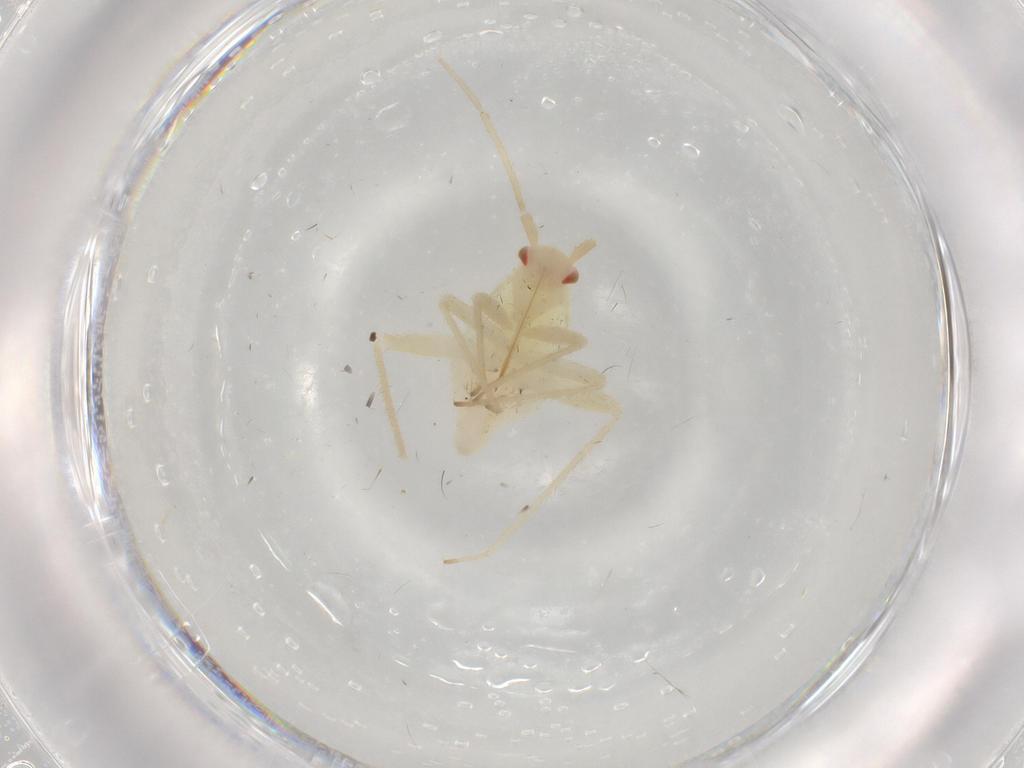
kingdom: Animalia
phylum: Arthropoda
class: Insecta
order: Hemiptera
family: Miridae
